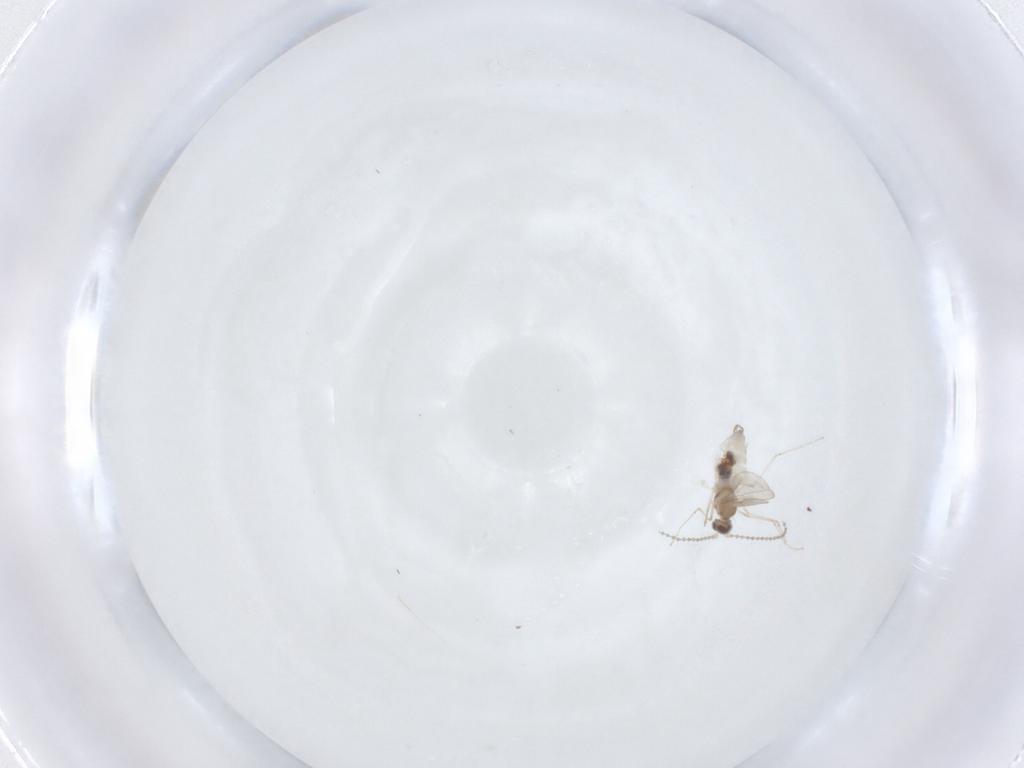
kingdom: Animalia
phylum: Arthropoda
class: Insecta
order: Diptera
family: Cecidomyiidae
